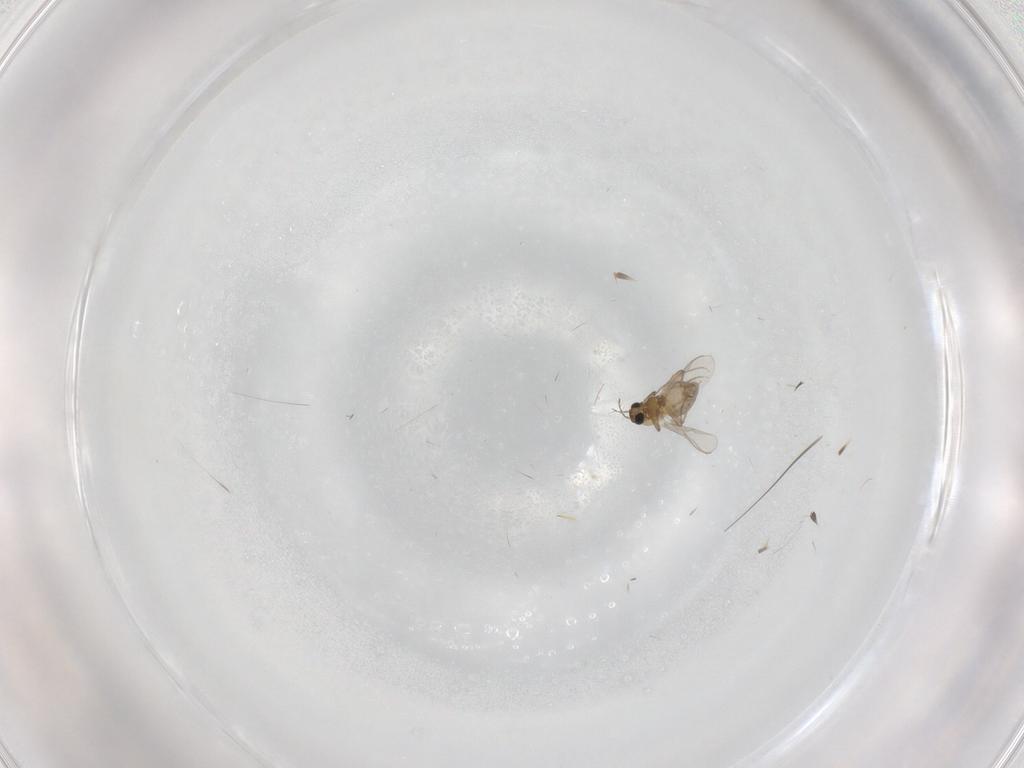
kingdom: Animalia
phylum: Arthropoda
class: Insecta
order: Diptera
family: Chironomidae
